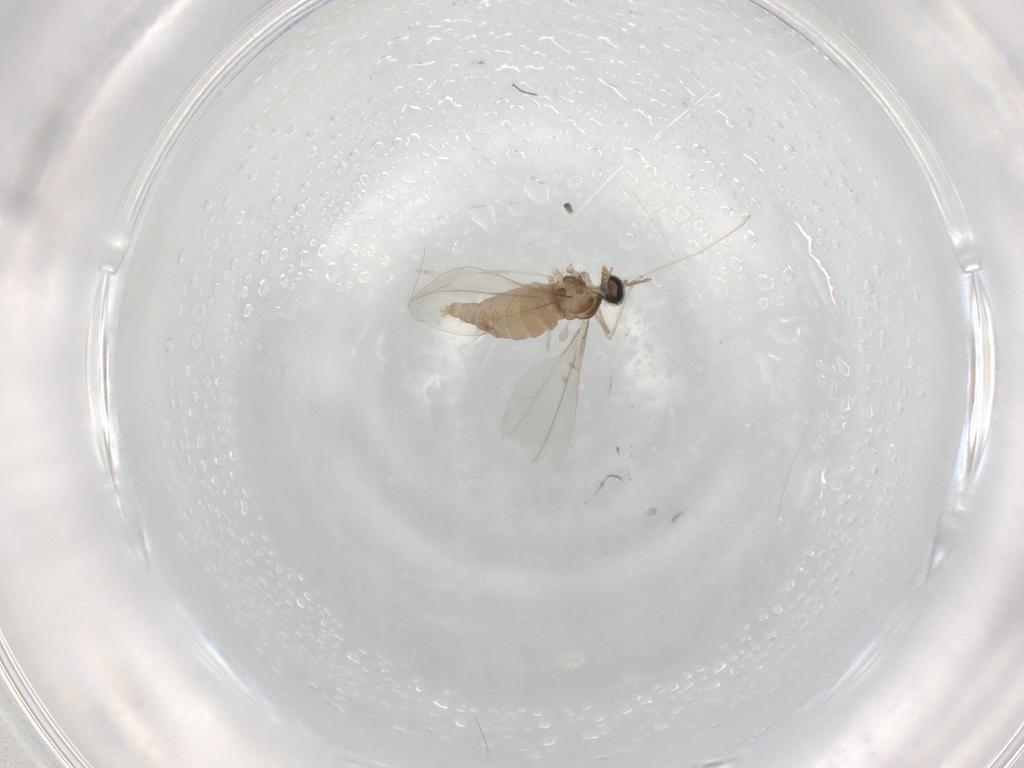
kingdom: Animalia
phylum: Arthropoda
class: Insecta
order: Diptera
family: Cecidomyiidae
